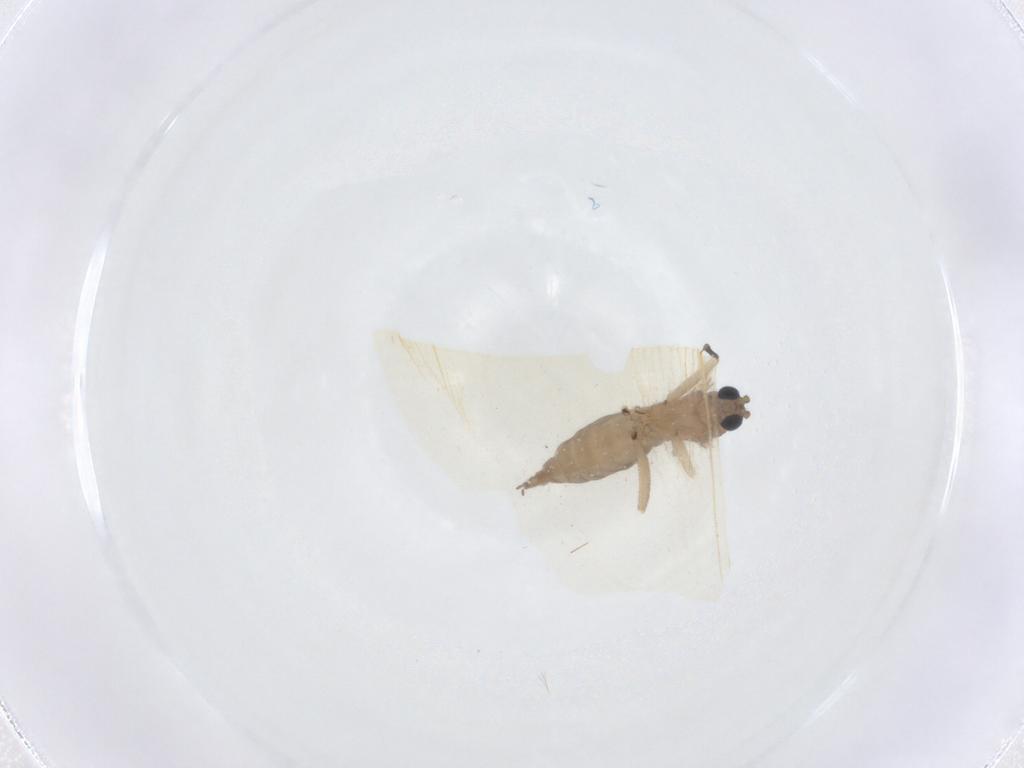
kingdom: Animalia
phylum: Arthropoda
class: Insecta
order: Diptera
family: Sciaridae
